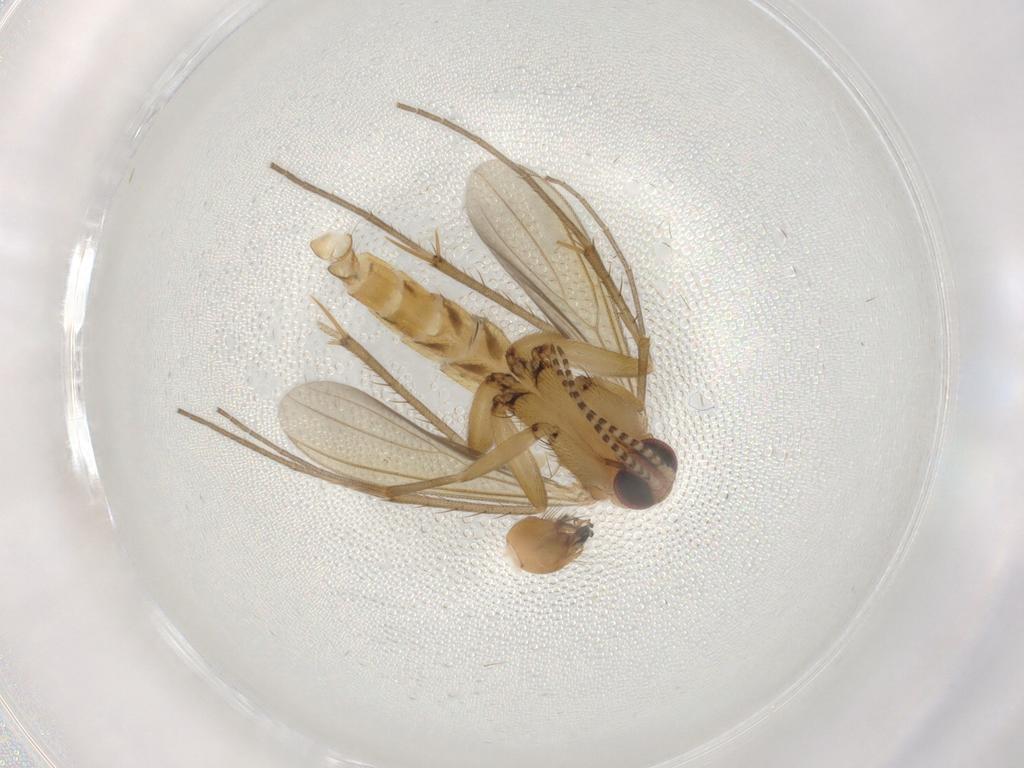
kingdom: Animalia
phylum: Arthropoda
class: Insecta
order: Diptera
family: Mycetophilidae
